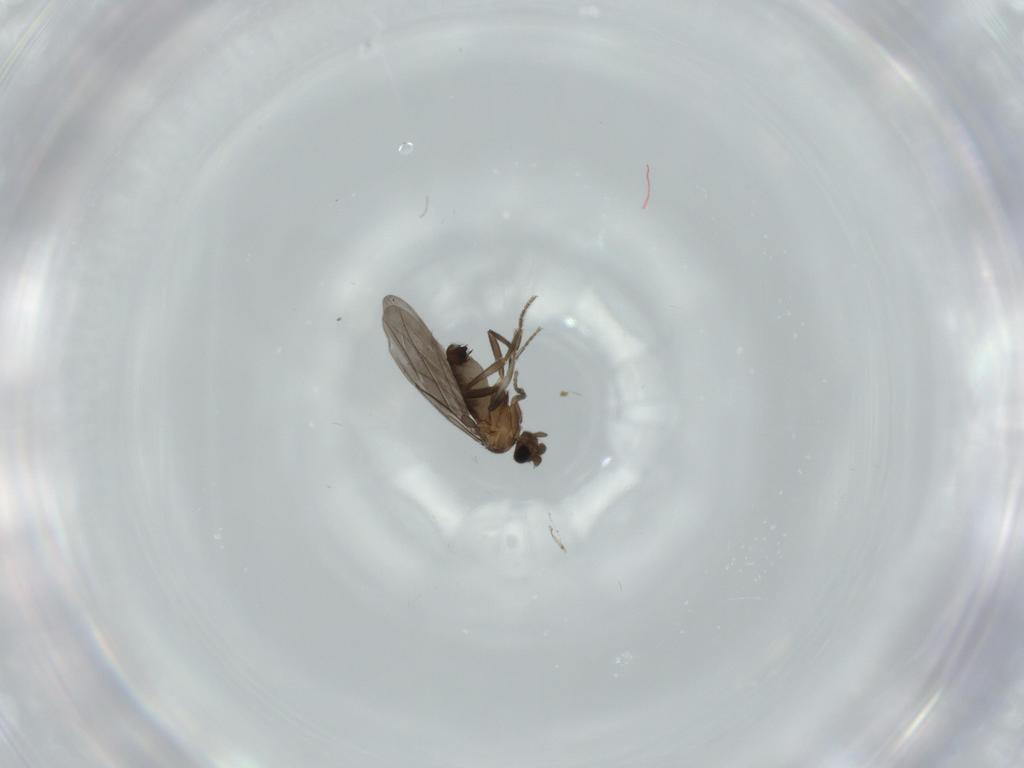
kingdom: Animalia
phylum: Arthropoda
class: Insecta
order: Diptera
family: Phoridae
